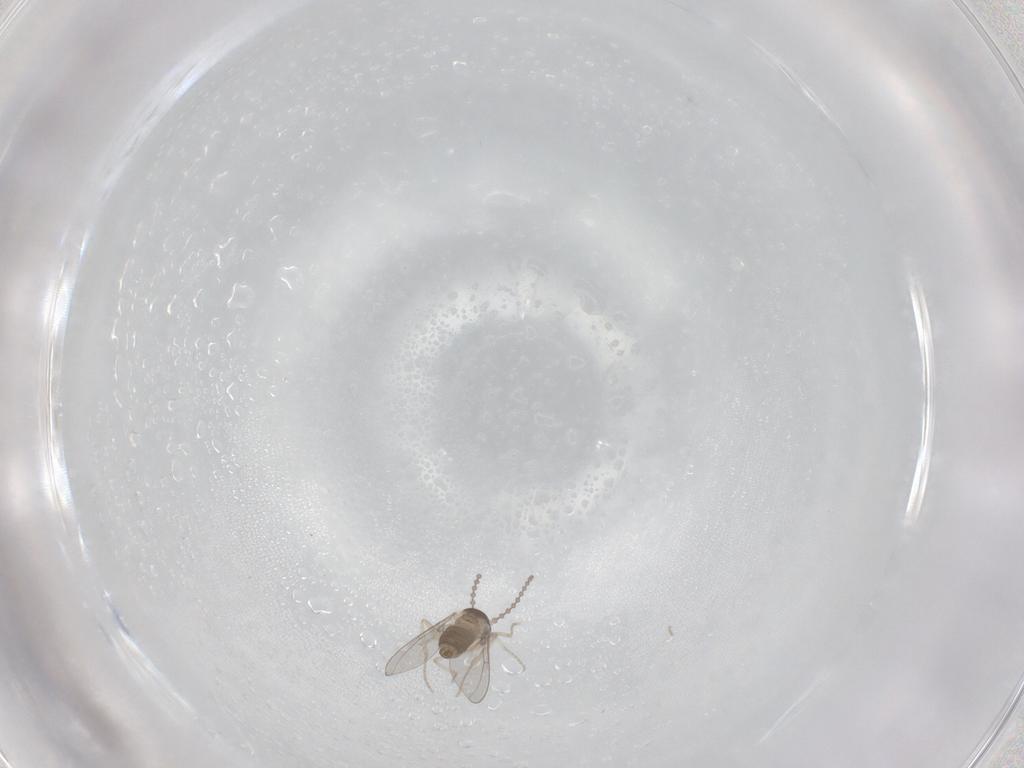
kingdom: Animalia
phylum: Arthropoda
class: Insecta
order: Diptera
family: Cecidomyiidae
